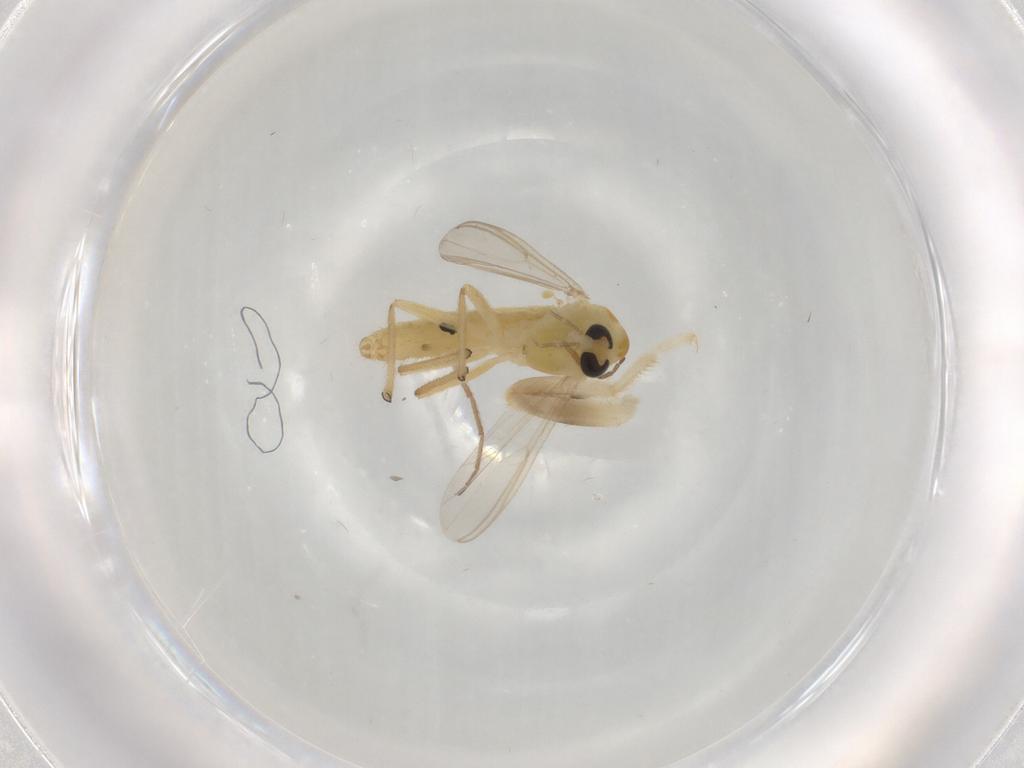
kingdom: Animalia
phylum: Arthropoda
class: Insecta
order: Diptera
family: Chironomidae
